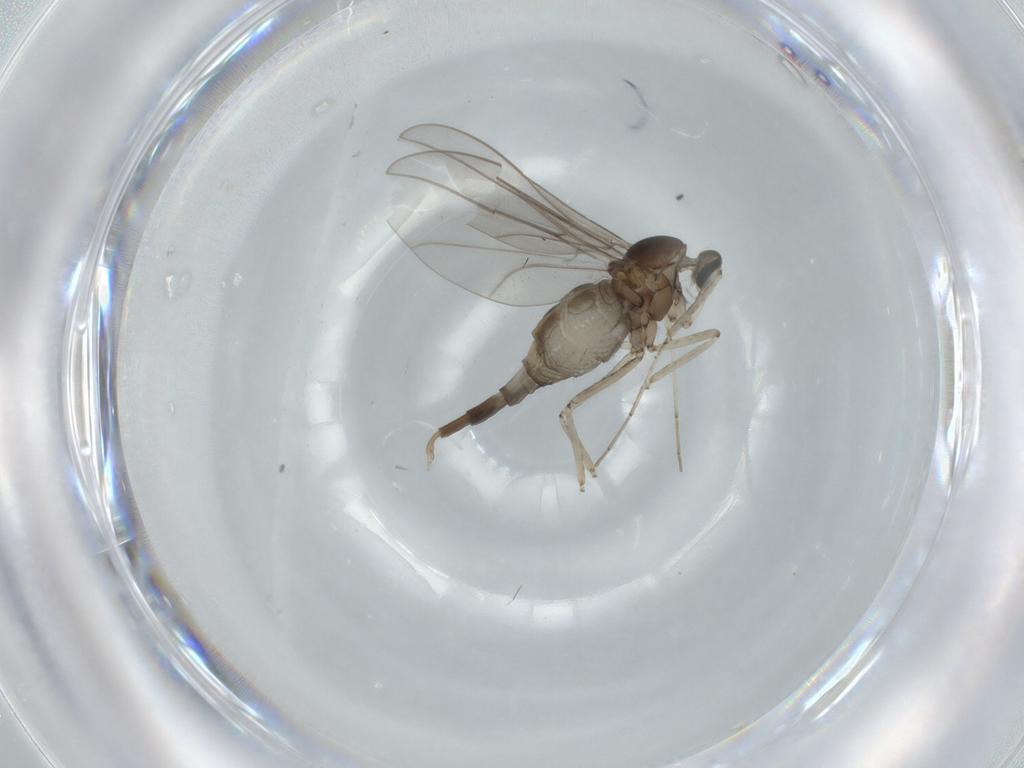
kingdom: Animalia
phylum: Arthropoda
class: Insecta
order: Diptera
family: Cecidomyiidae
